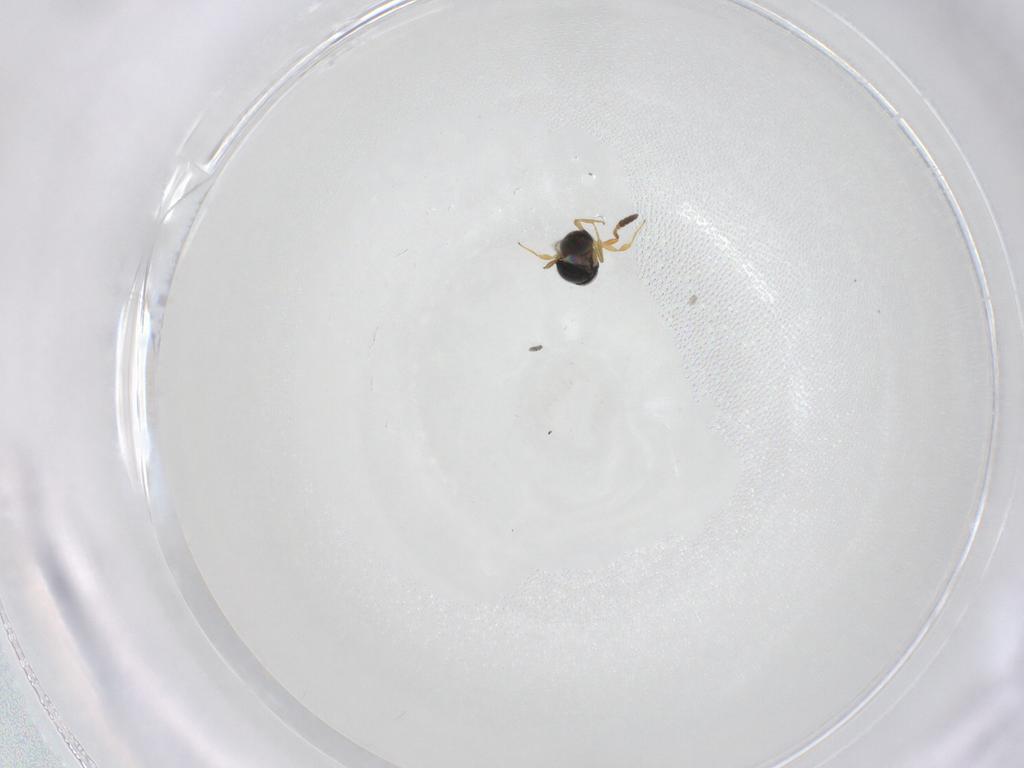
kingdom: Animalia
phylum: Arthropoda
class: Insecta
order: Hymenoptera
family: Scelionidae
